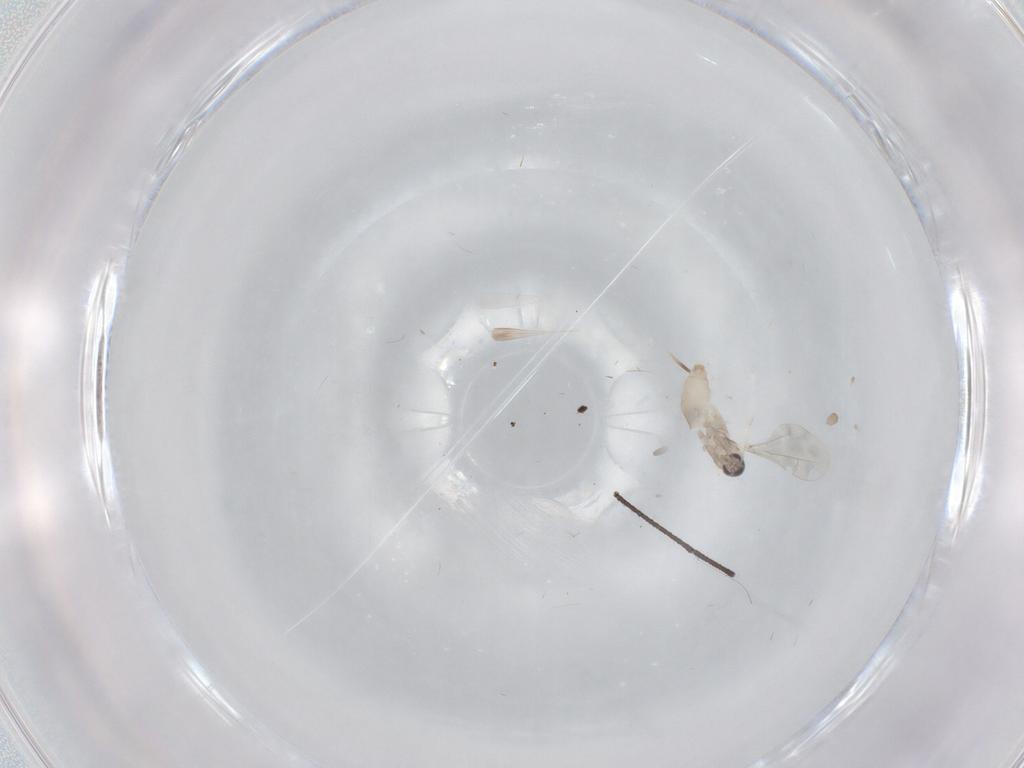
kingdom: Animalia
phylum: Arthropoda
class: Insecta
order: Diptera
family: Cecidomyiidae
